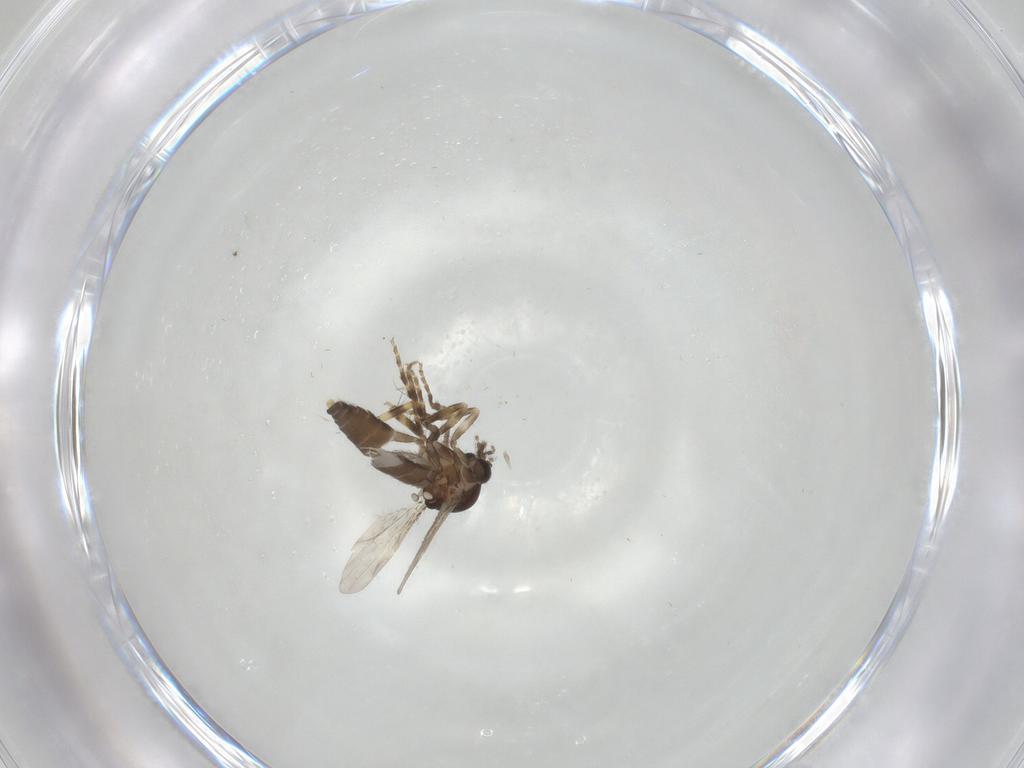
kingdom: Animalia
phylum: Arthropoda
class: Insecta
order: Diptera
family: Ceratopogonidae
